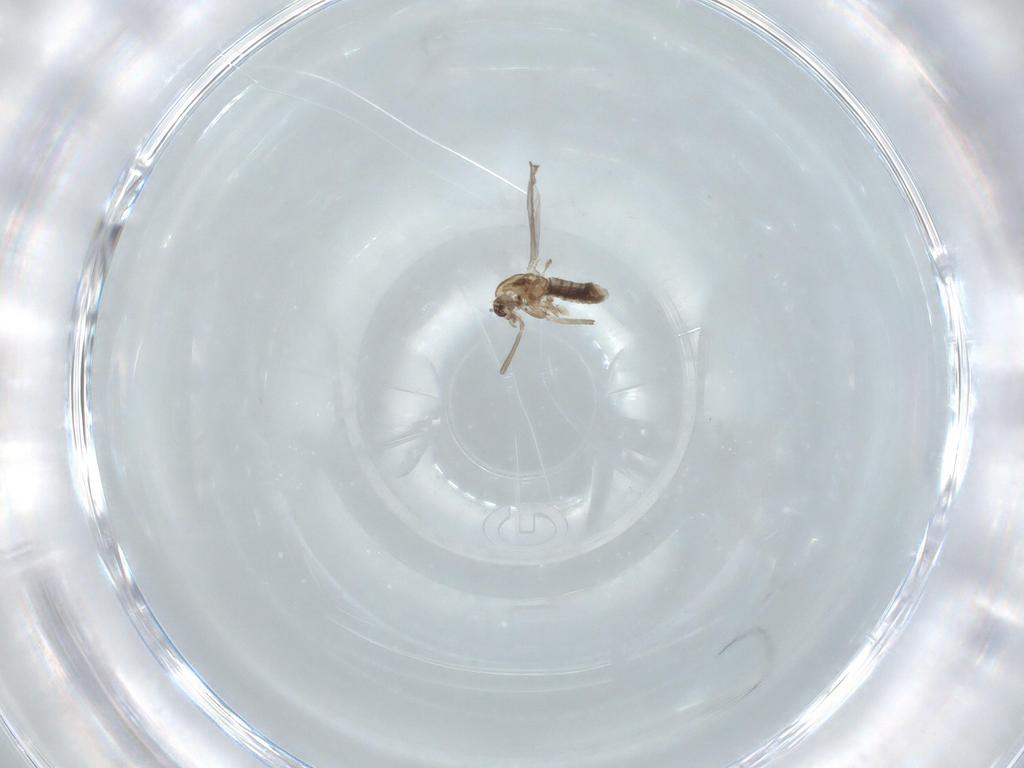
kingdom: Animalia
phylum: Arthropoda
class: Insecta
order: Diptera
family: Chironomidae
